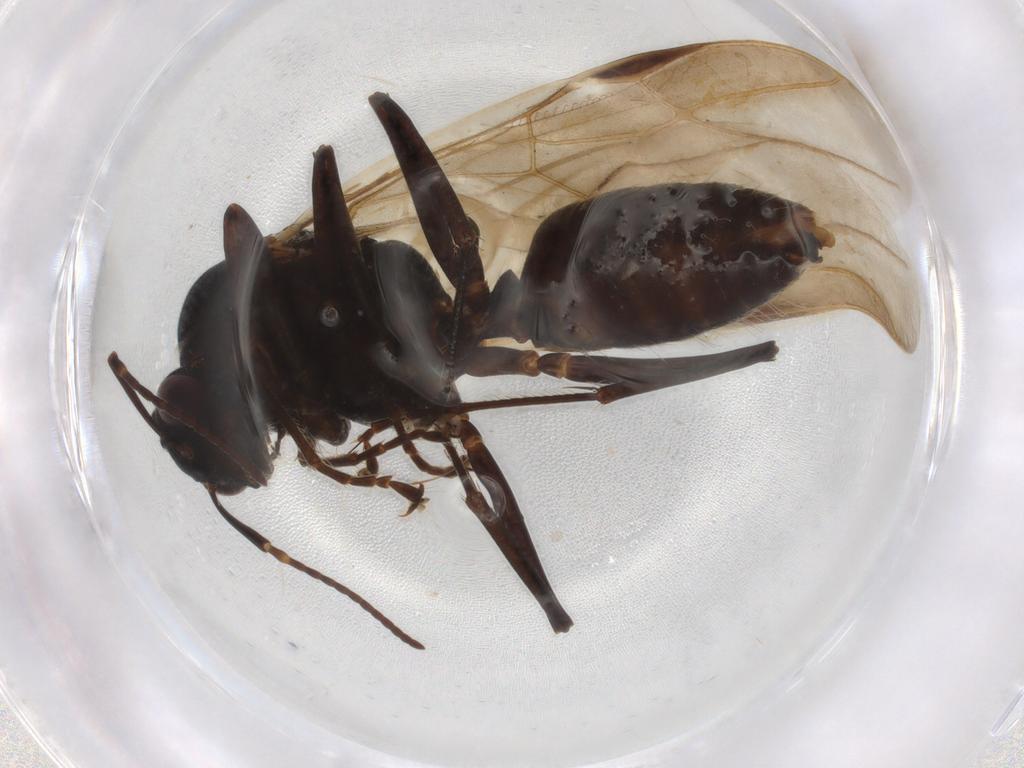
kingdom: Animalia
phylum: Arthropoda
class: Insecta
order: Hymenoptera
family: Formicidae
